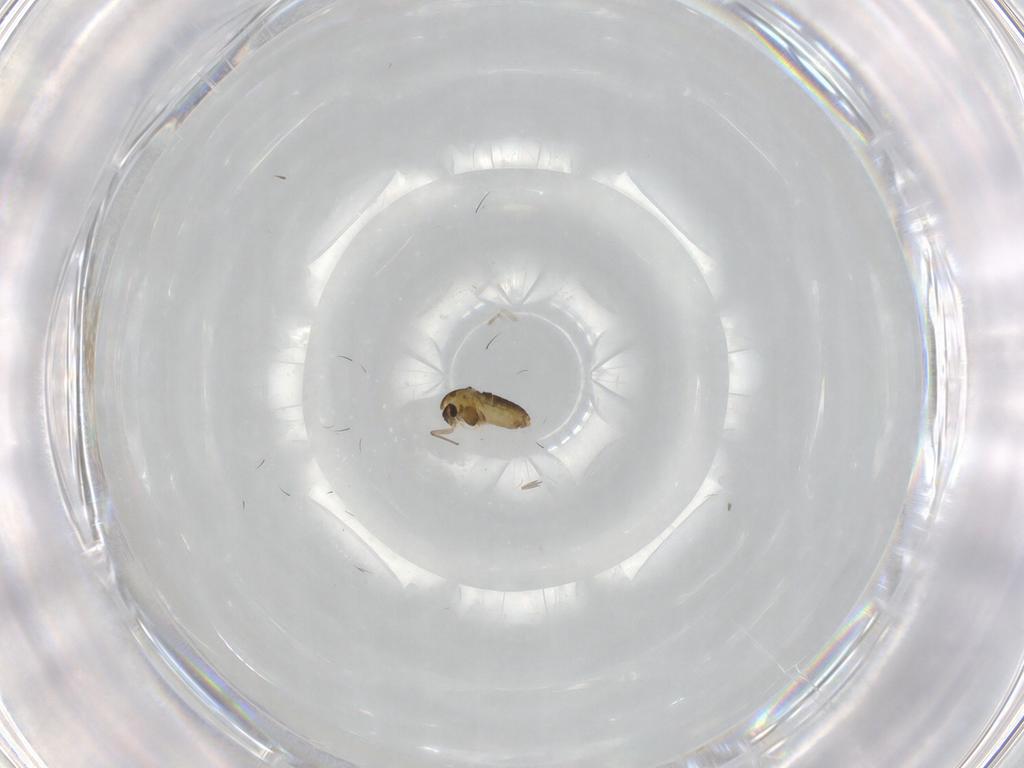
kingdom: Animalia
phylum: Arthropoda
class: Insecta
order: Diptera
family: Chironomidae
